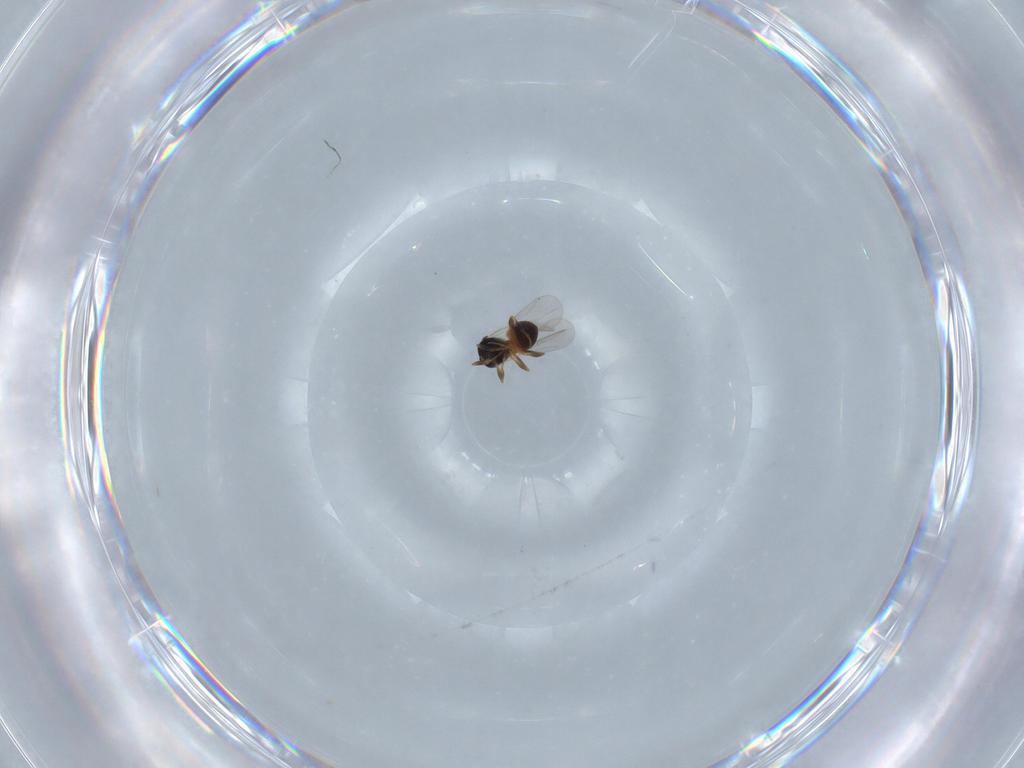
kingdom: Animalia
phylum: Arthropoda
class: Insecta
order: Hymenoptera
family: Platygastridae
